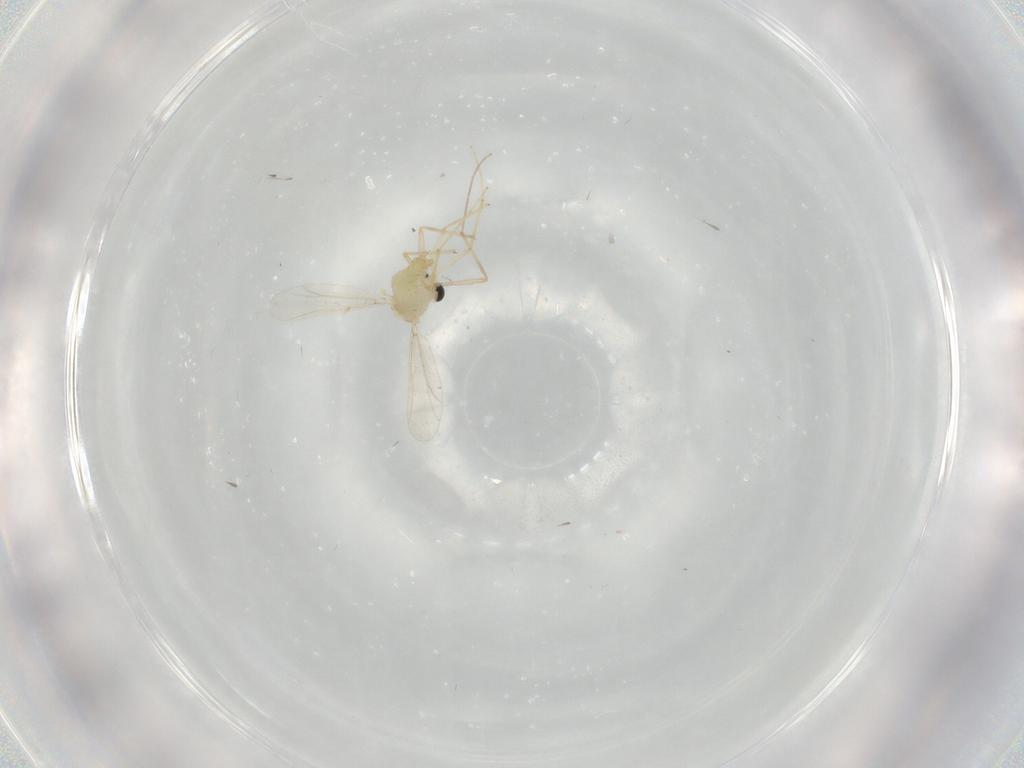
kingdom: Animalia
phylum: Arthropoda
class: Insecta
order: Diptera
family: Chironomidae
